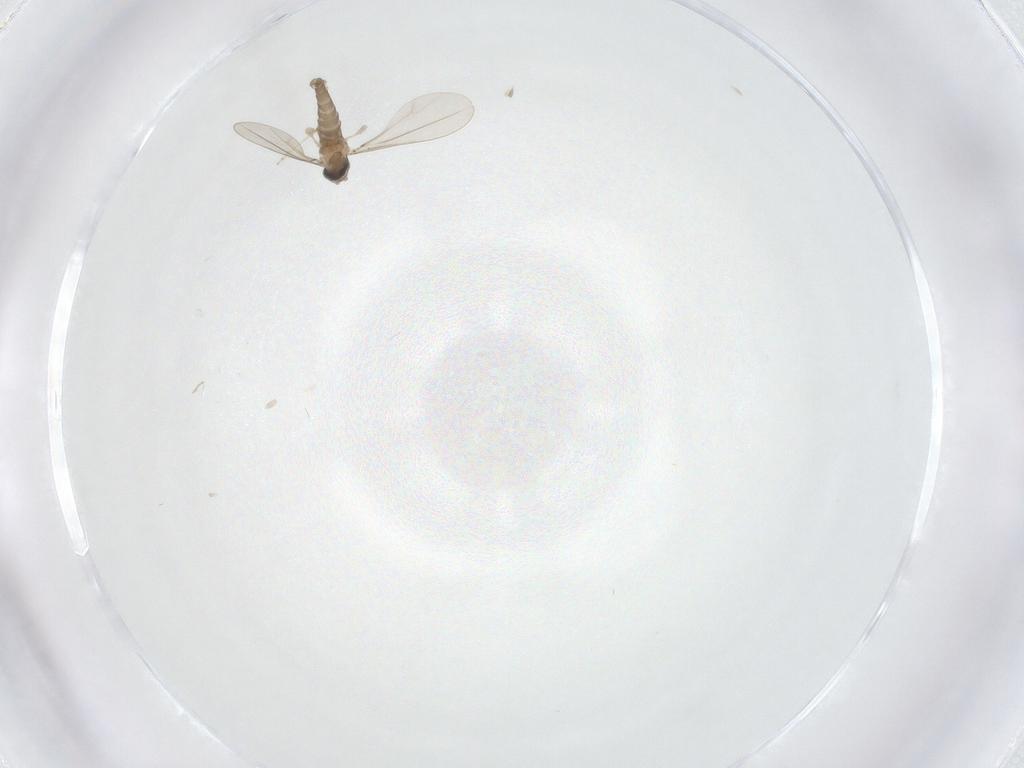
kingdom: Animalia
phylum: Arthropoda
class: Insecta
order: Diptera
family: Cecidomyiidae
